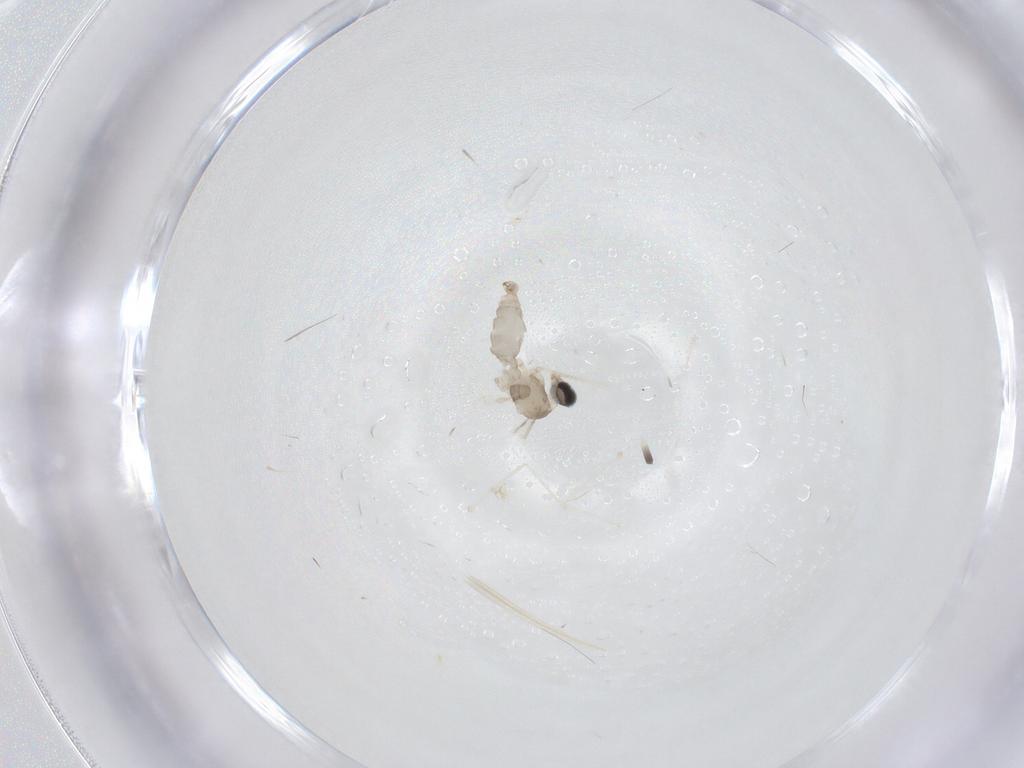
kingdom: Animalia
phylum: Arthropoda
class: Insecta
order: Diptera
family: Cecidomyiidae
